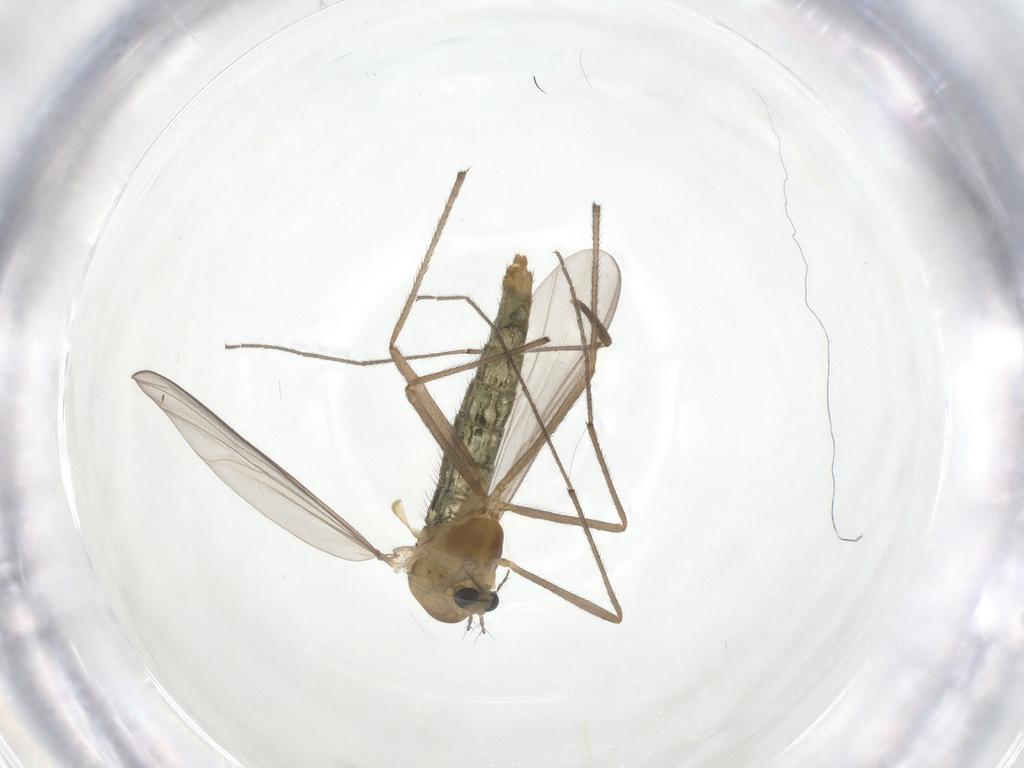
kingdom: Animalia
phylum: Arthropoda
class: Insecta
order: Diptera
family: Chironomidae
